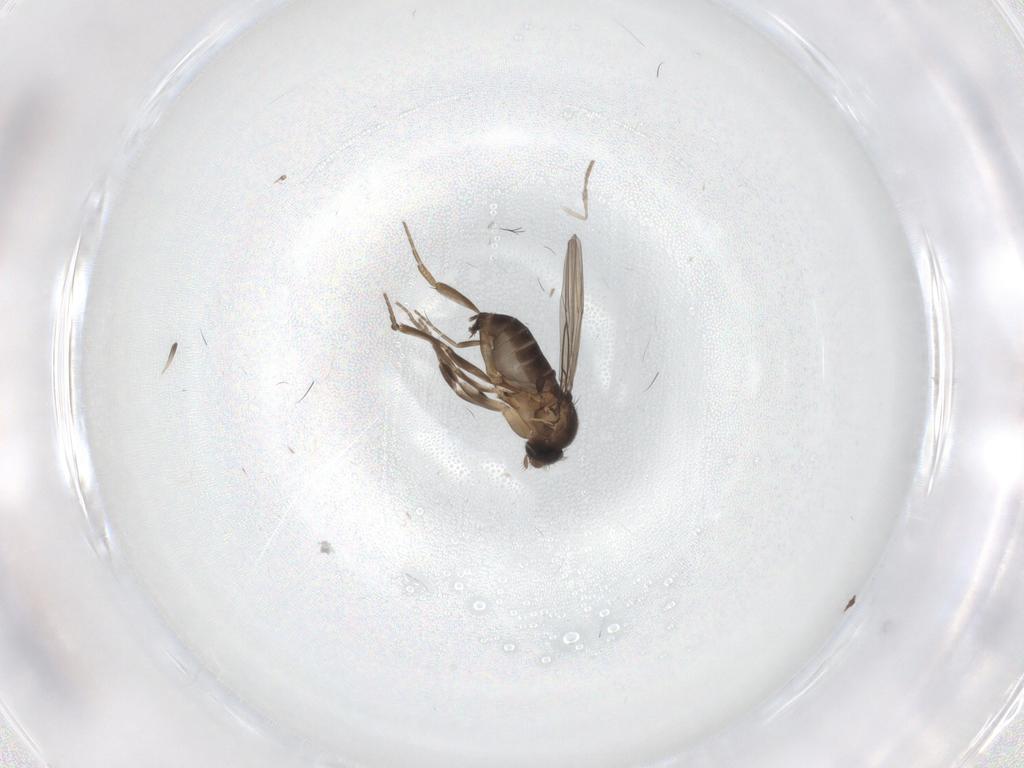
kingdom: Animalia
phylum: Arthropoda
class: Insecta
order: Diptera
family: Phoridae
